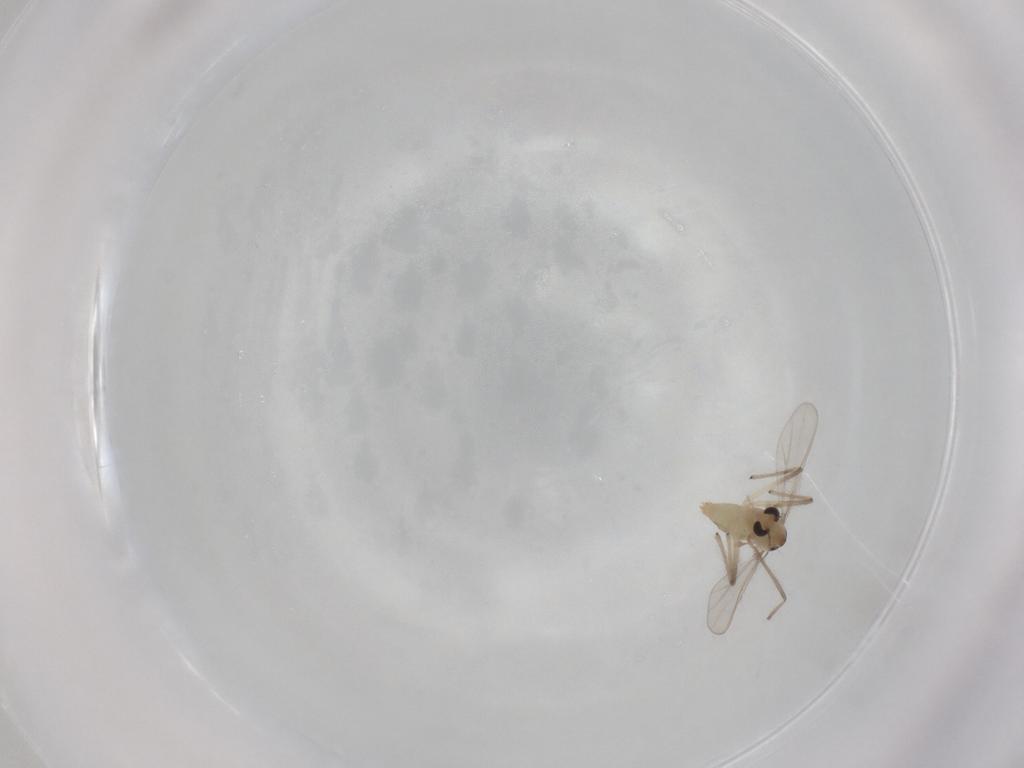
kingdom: Animalia
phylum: Arthropoda
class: Insecta
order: Diptera
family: Chironomidae
